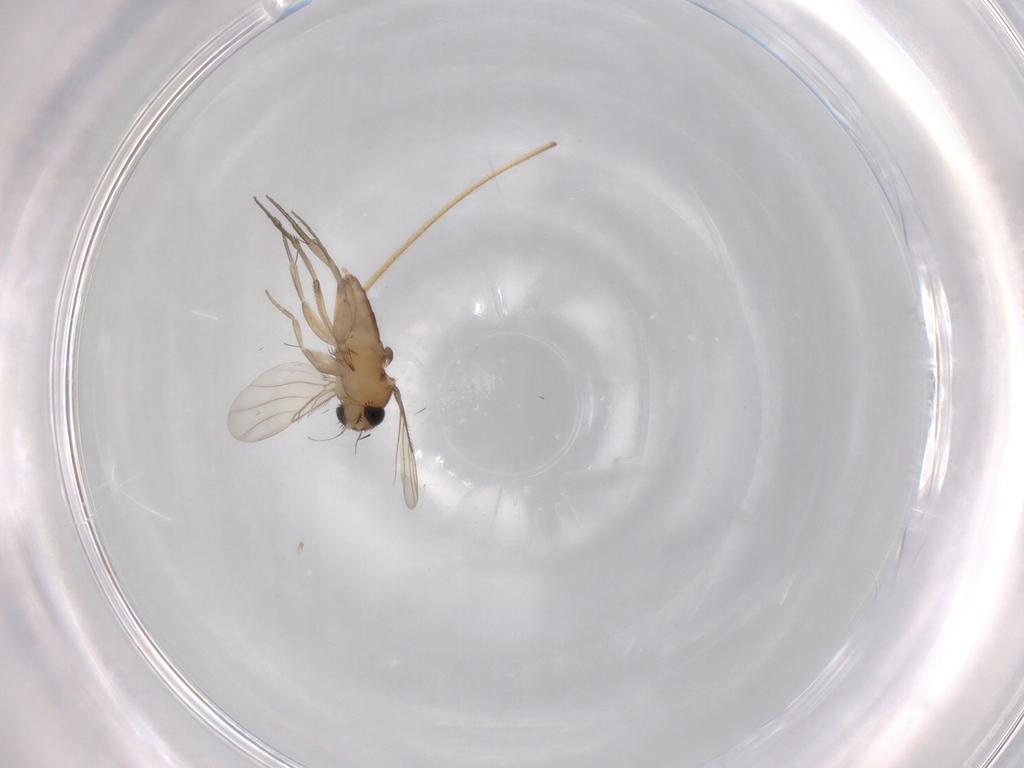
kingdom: Animalia
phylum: Arthropoda
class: Insecta
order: Diptera
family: Phoridae
